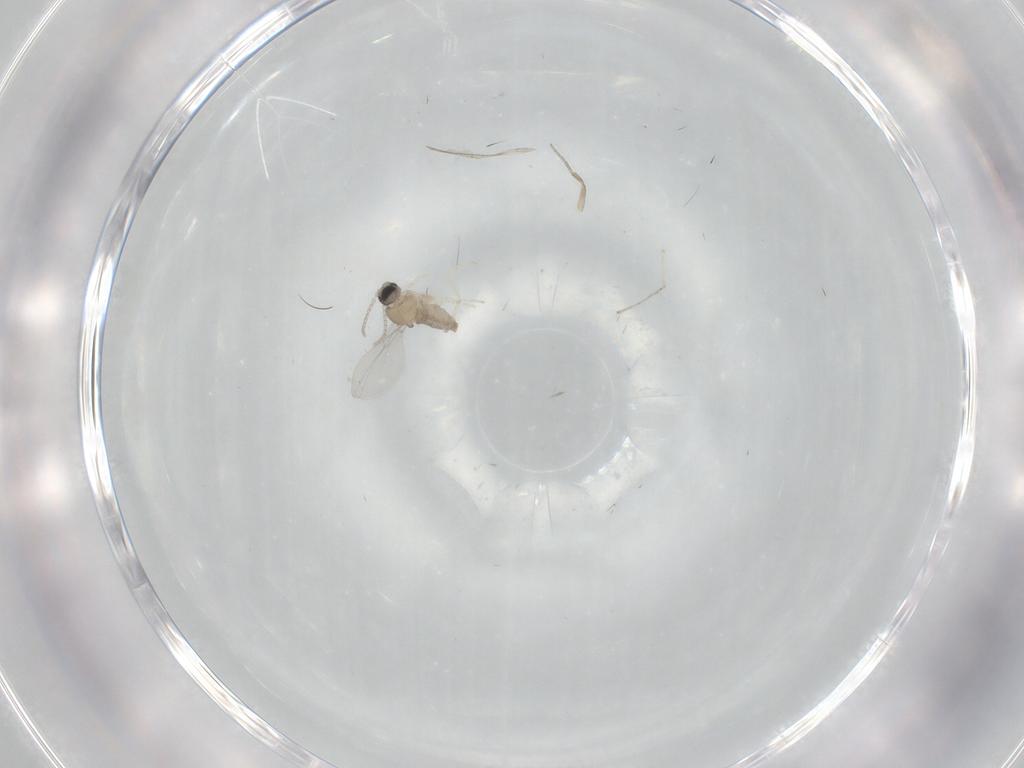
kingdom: Animalia
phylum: Arthropoda
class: Insecta
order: Diptera
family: Cecidomyiidae
